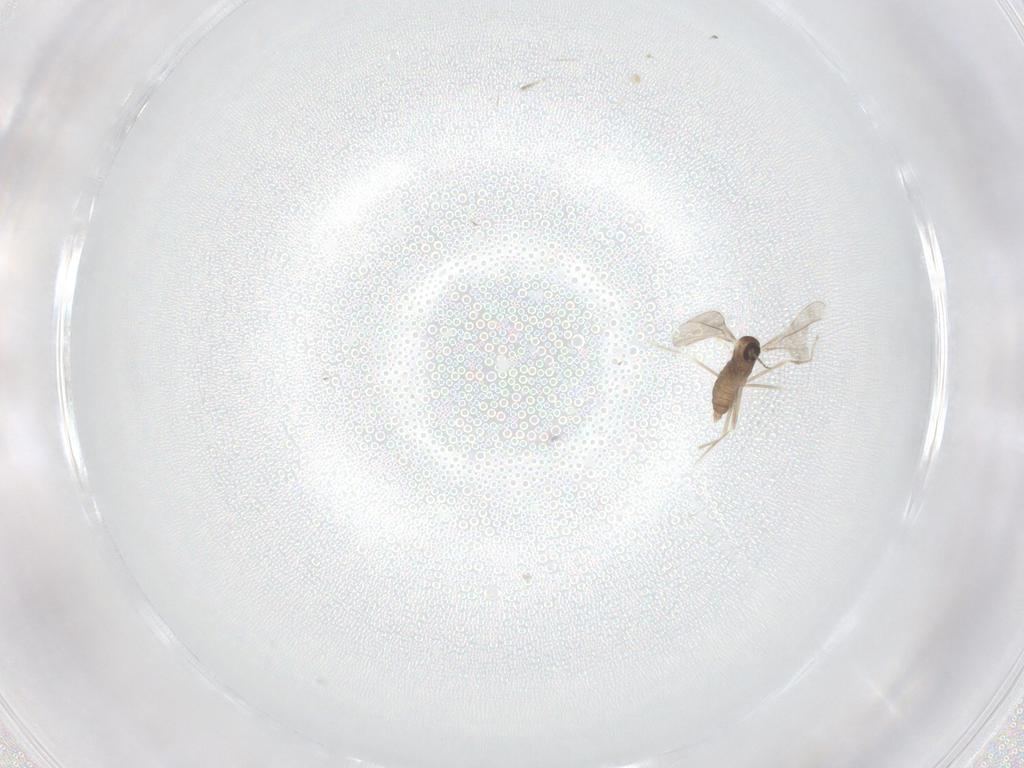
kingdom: Animalia
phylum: Arthropoda
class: Insecta
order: Diptera
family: Cecidomyiidae
